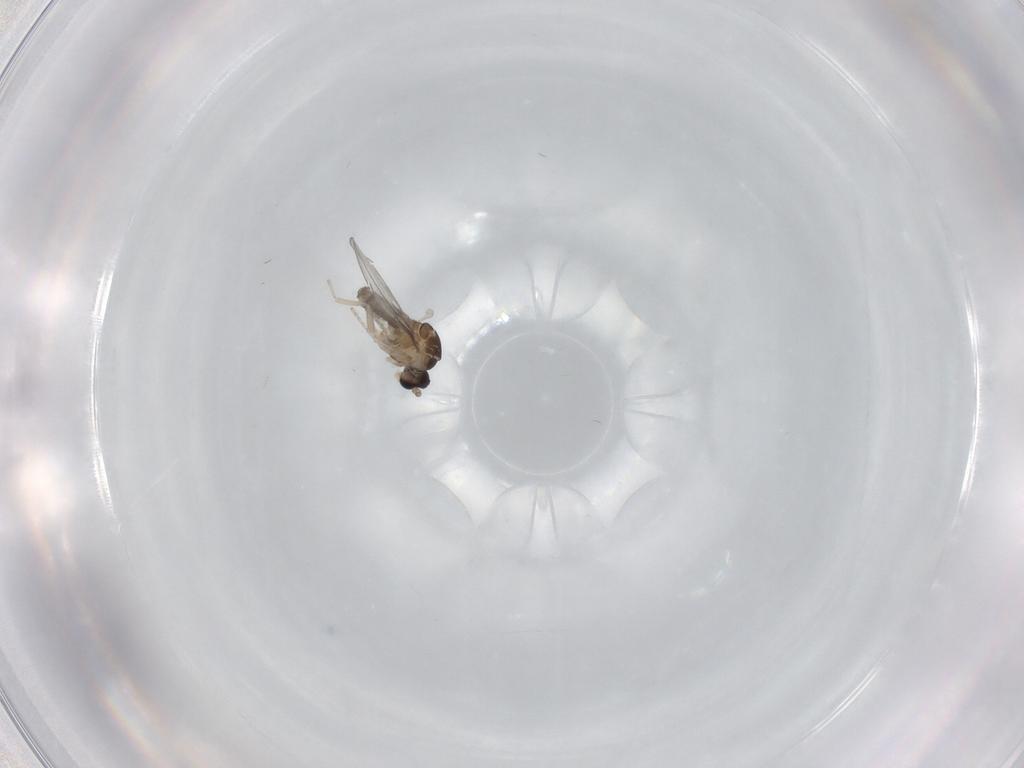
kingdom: Animalia
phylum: Arthropoda
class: Insecta
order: Diptera
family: Cecidomyiidae
